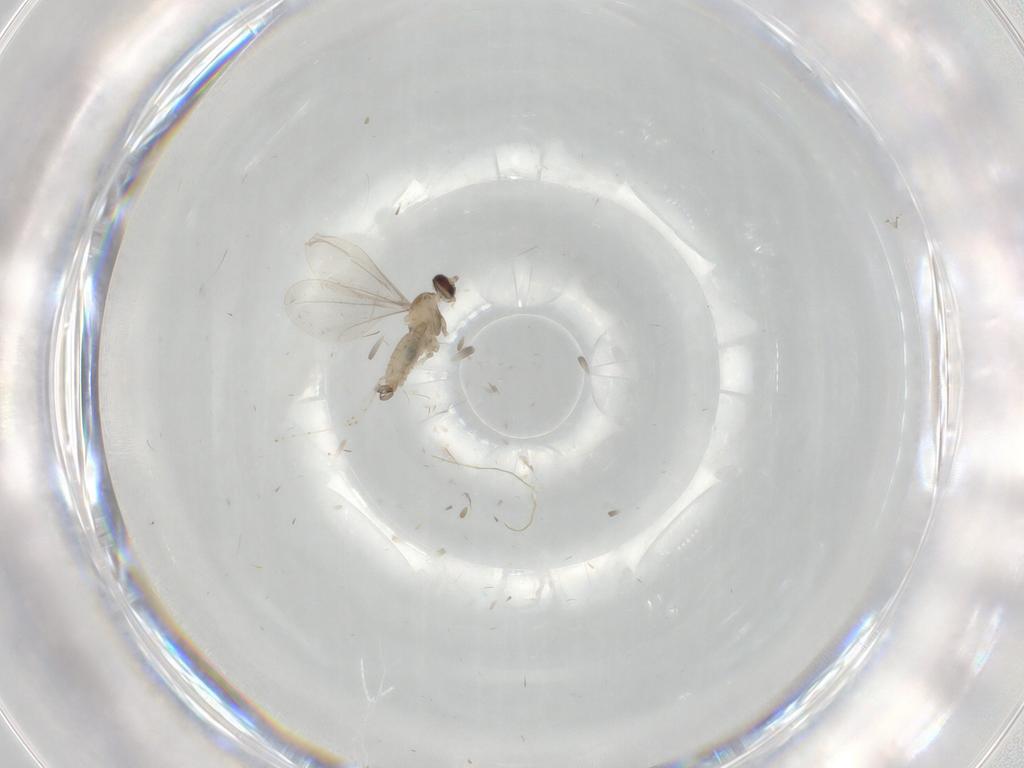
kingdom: Animalia
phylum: Arthropoda
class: Insecta
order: Diptera
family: Cecidomyiidae
